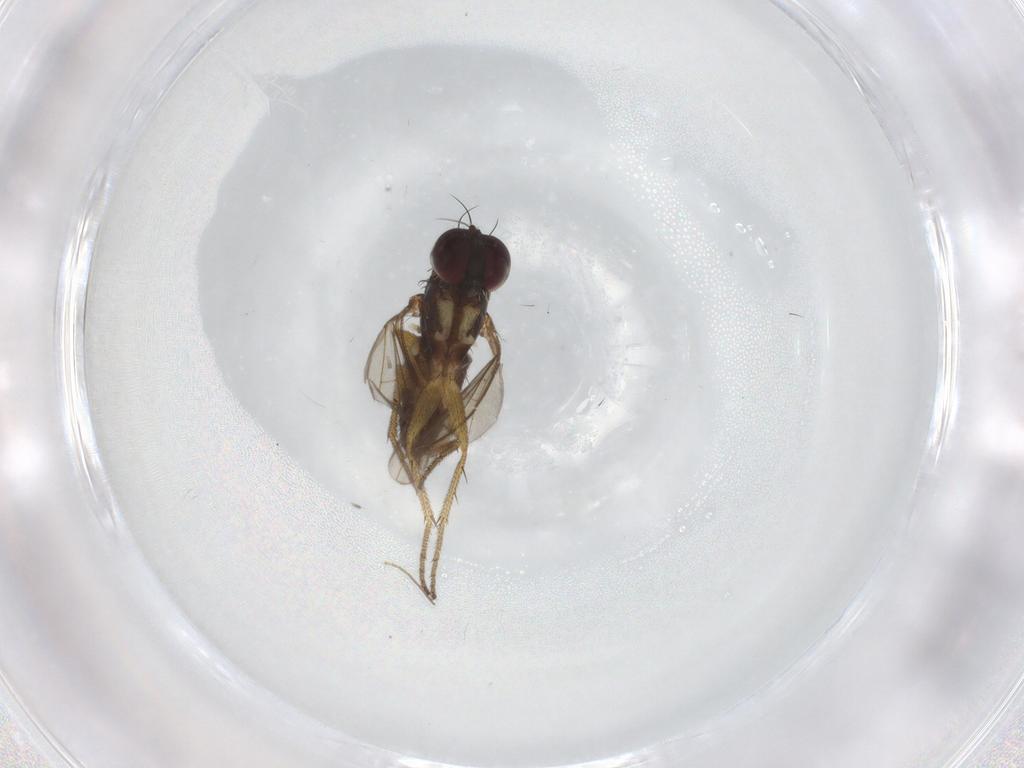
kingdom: Animalia
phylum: Arthropoda
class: Insecta
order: Diptera
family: Dolichopodidae
